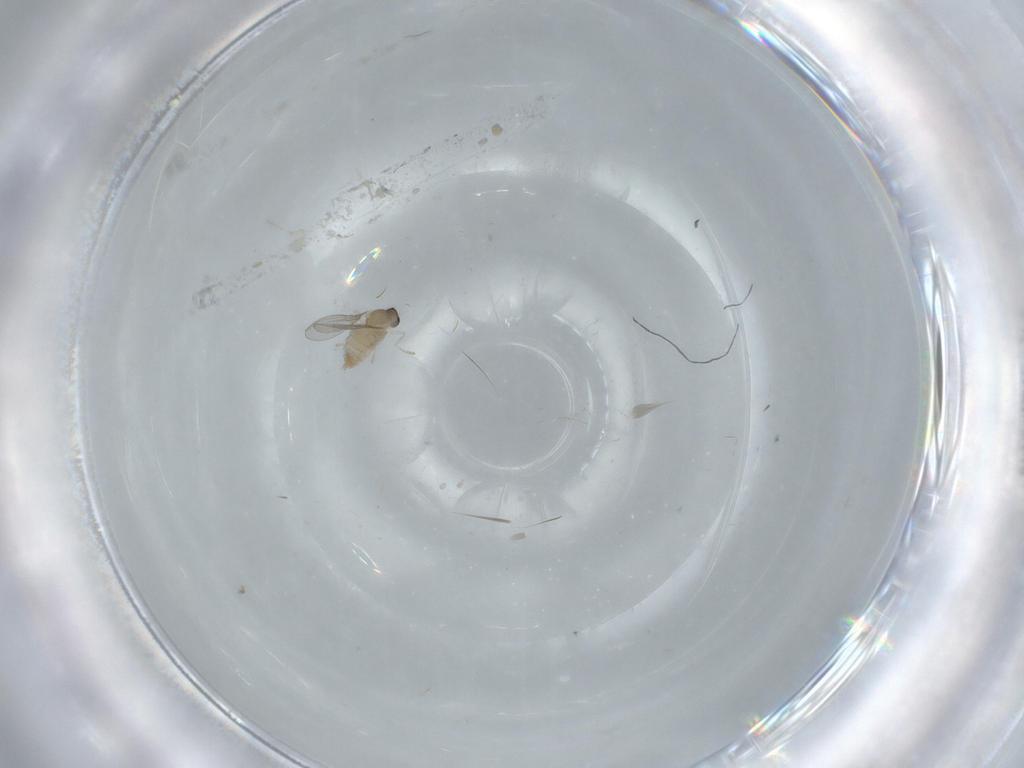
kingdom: Animalia
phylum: Arthropoda
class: Insecta
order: Diptera
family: Cecidomyiidae
